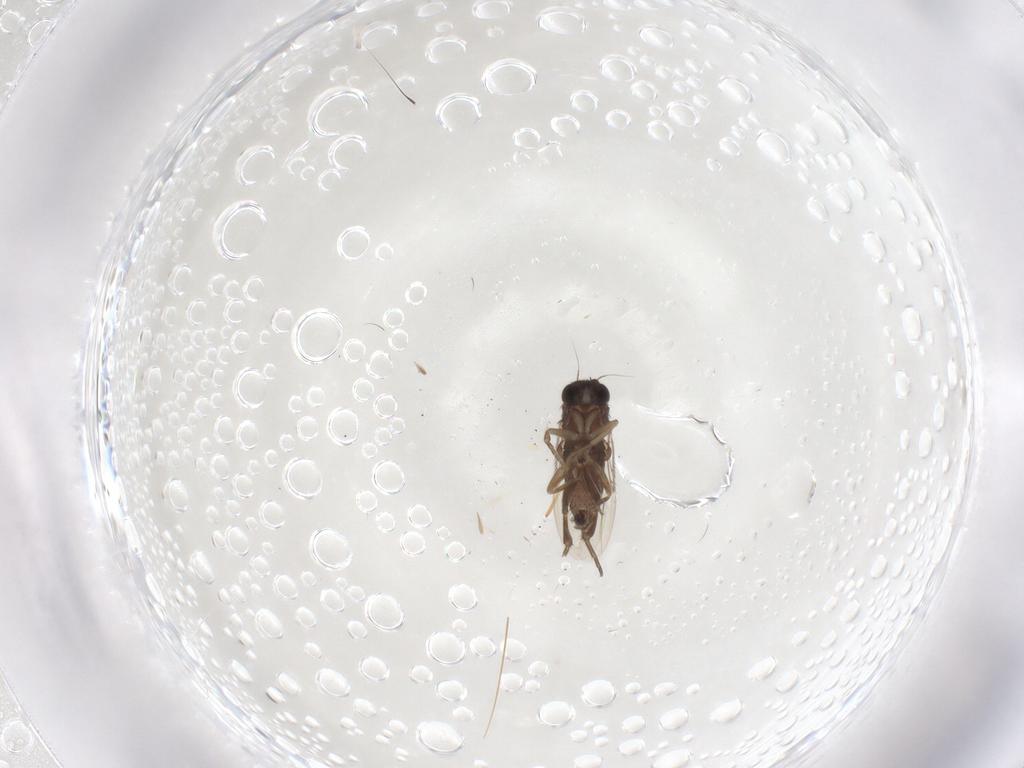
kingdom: Animalia
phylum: Arthropoda
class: Insecta
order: Diptera
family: Phoridae
